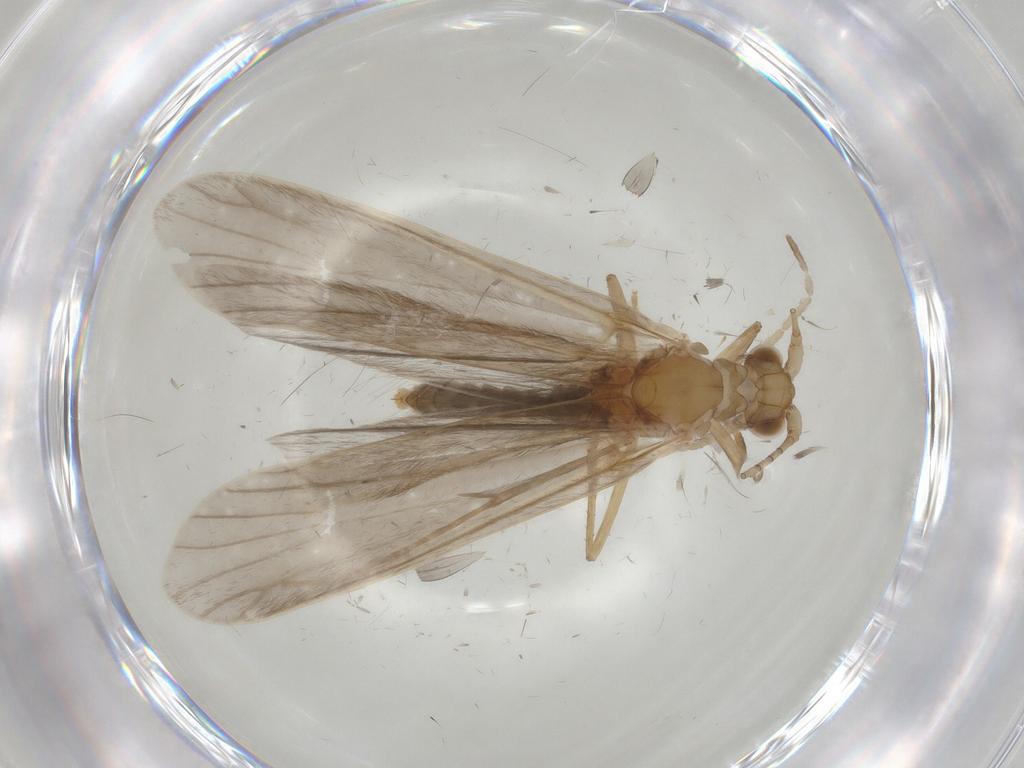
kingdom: Animalia
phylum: Arthropoda
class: Insecta
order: Trichoptera
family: Leptoceridae
